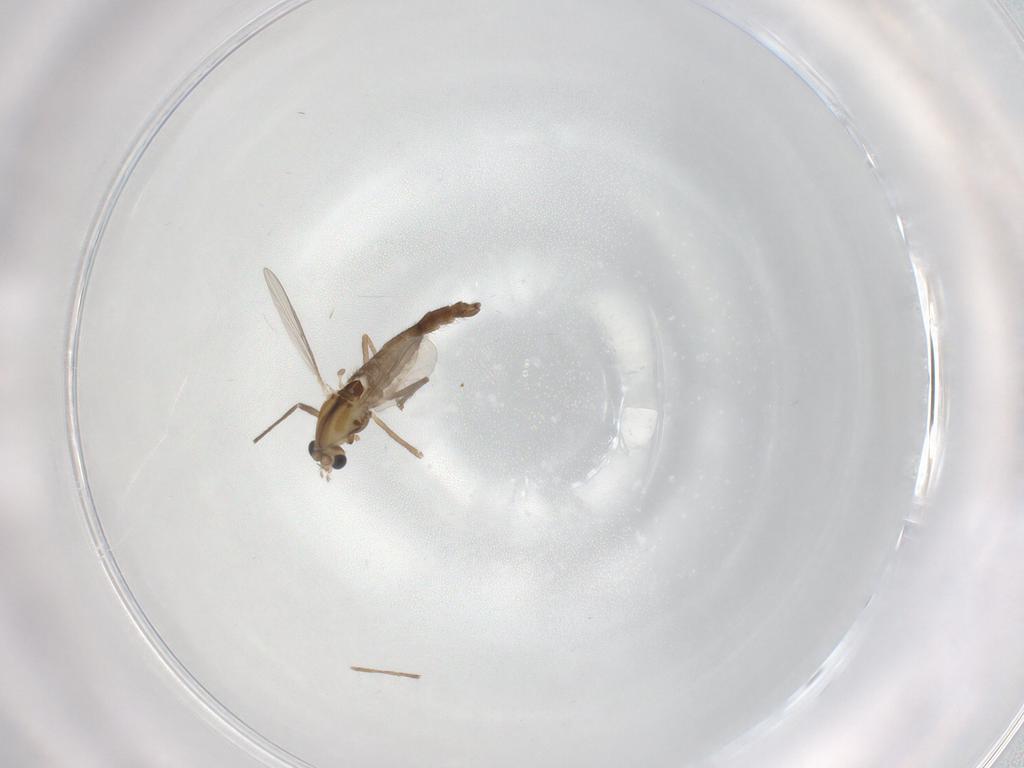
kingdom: Animalia
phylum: Arthropoda
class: Insecta
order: Diptera
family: Chironomidae
